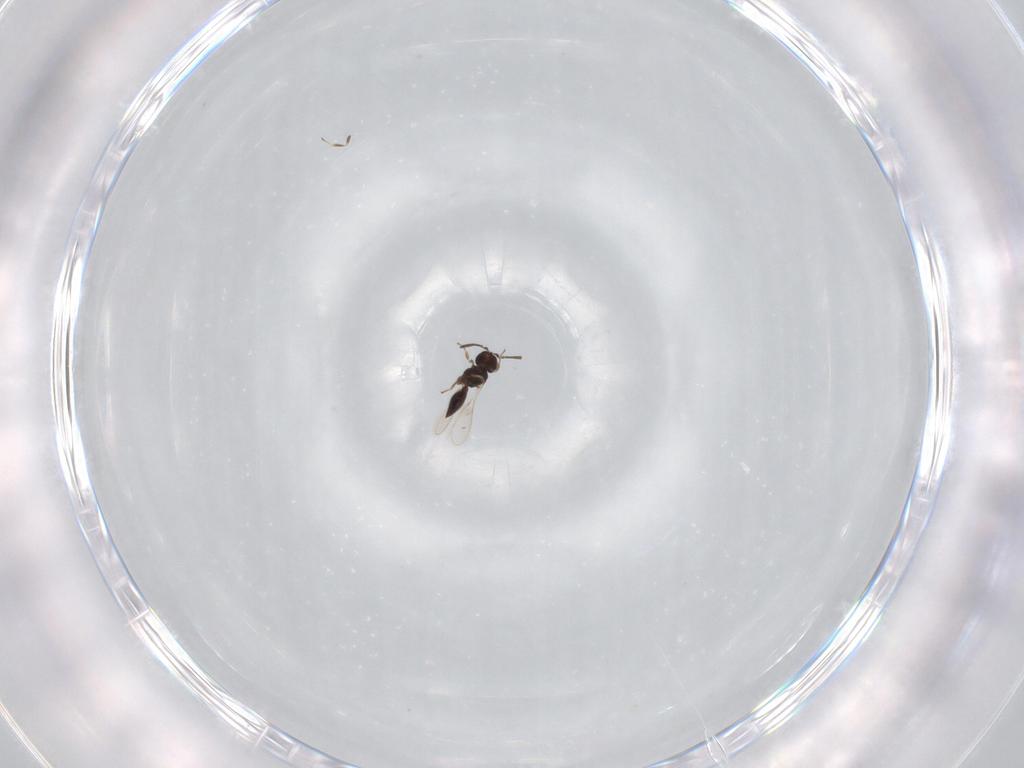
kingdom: Animalia
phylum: Arthropoda
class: Insecta
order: Hymenoptera
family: Scelionidae
